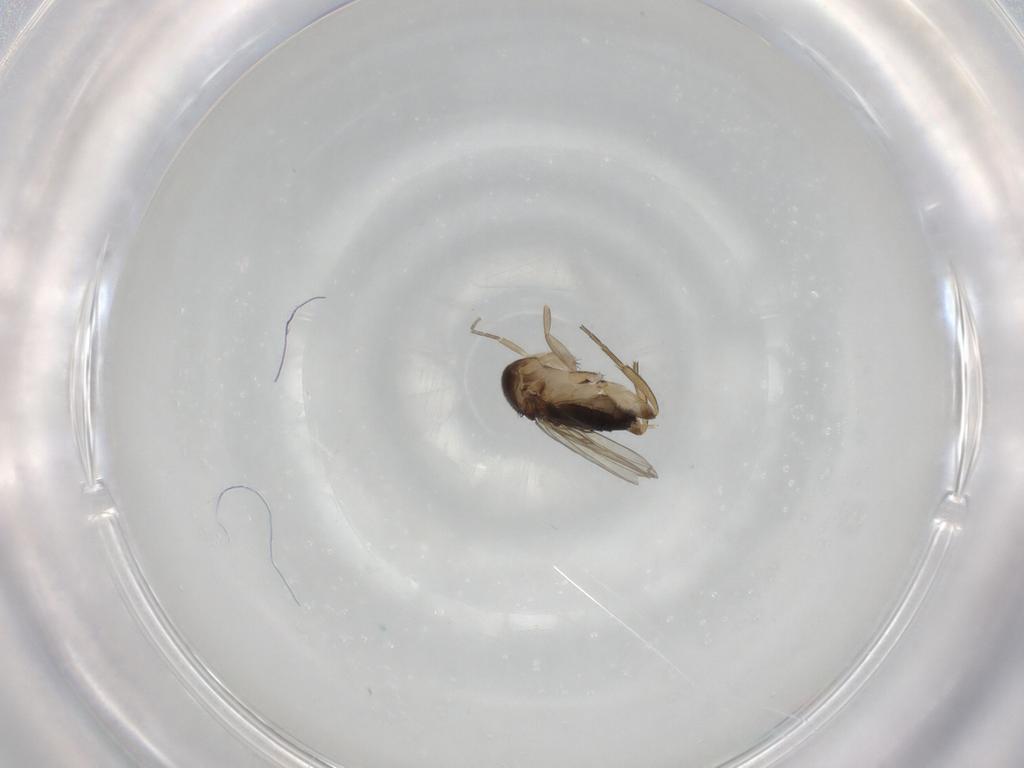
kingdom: Animalia
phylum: Arthropoda
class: Insecta
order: Diptera
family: Phoridae
